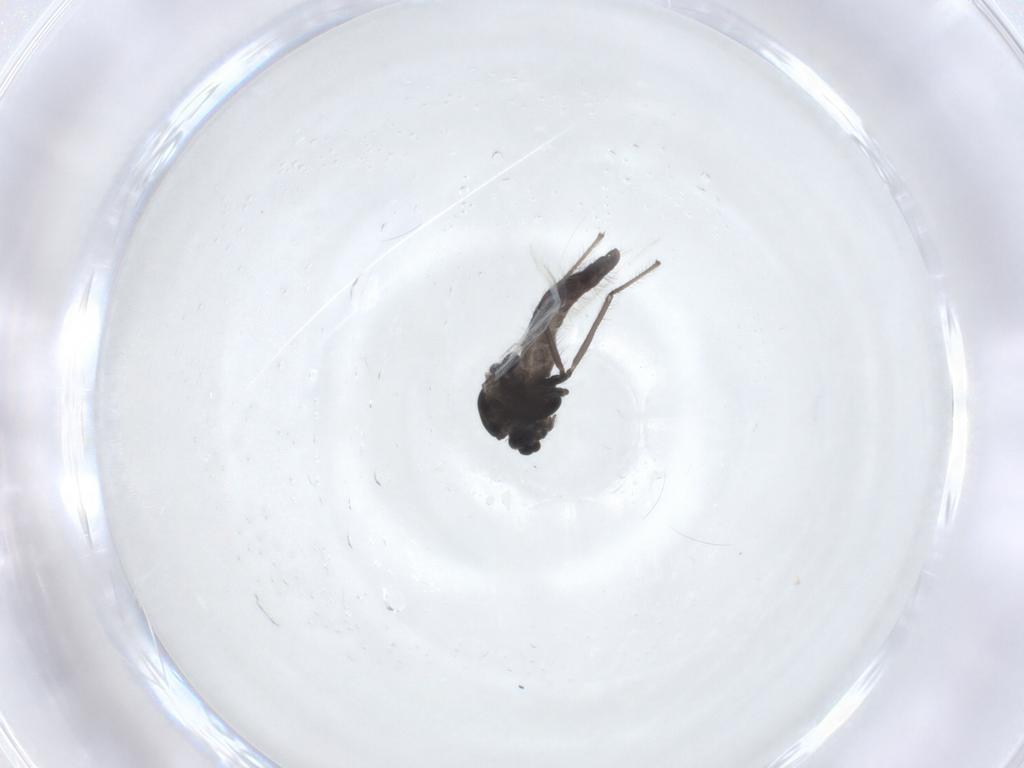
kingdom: Animalia
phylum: Arthropoda
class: Insecta
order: Diptera
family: Chironomidae
